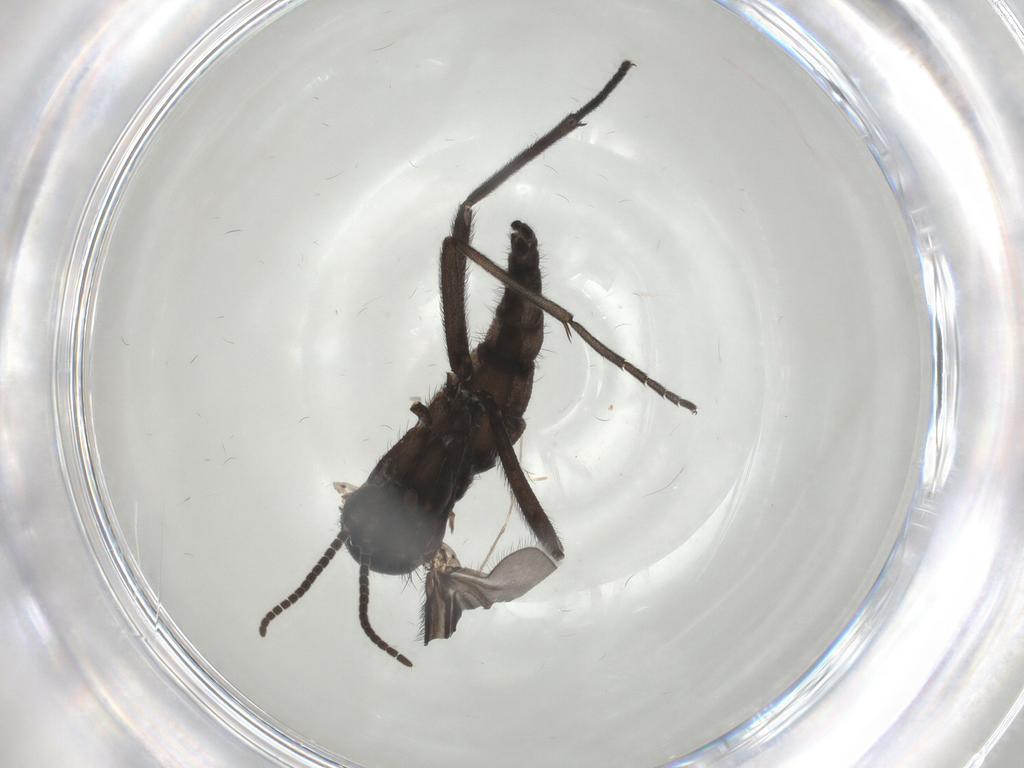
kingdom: Animalia
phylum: Arthropoda
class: Insecta
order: Diptera
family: Sciaridae
